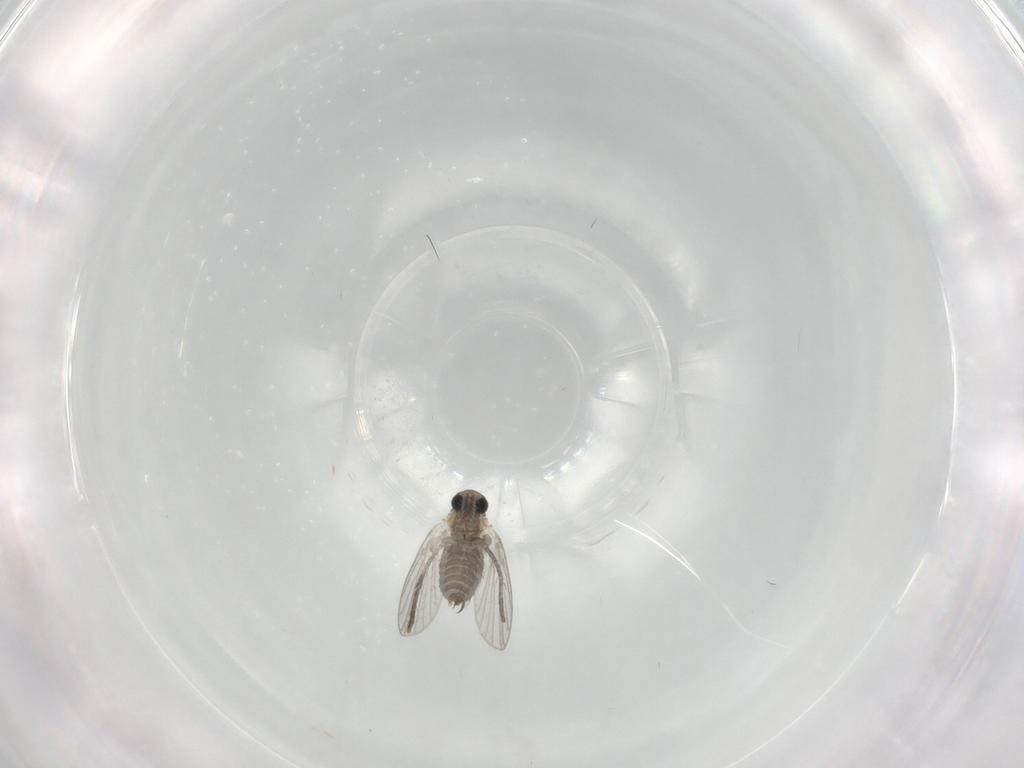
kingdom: Animalia
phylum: Arthropoda
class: Insecta
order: Diptera
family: Cecidomyiidae
